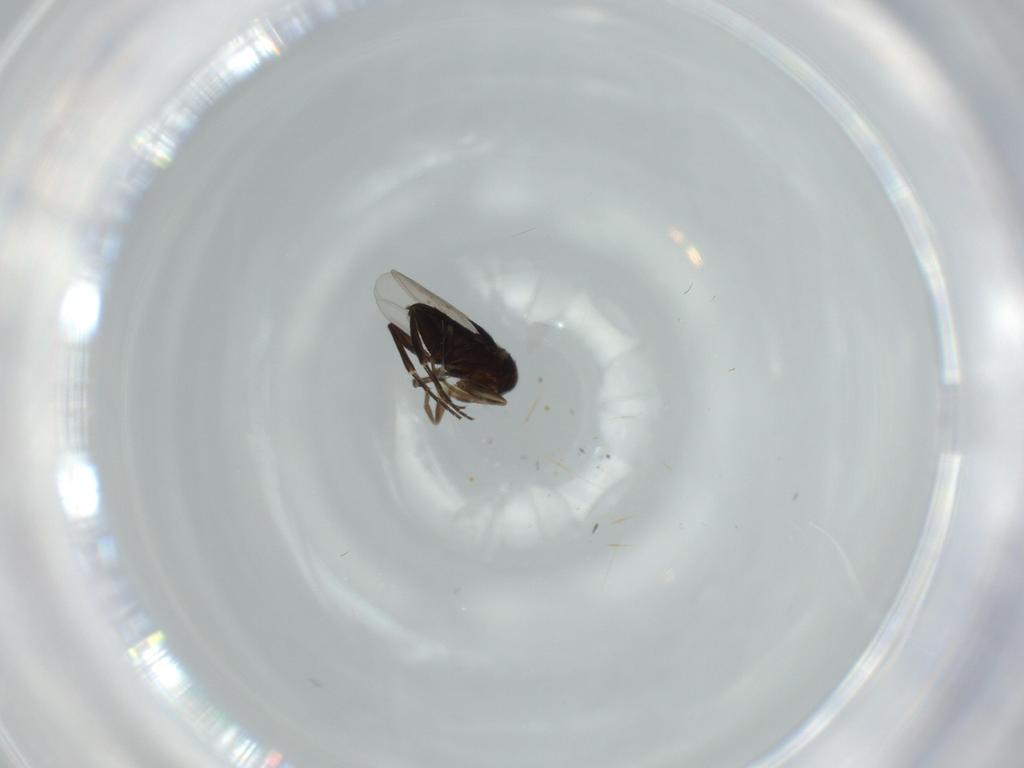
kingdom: Animalia
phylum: Arthropoda
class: Insecta
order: Diptera
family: Phoridae
